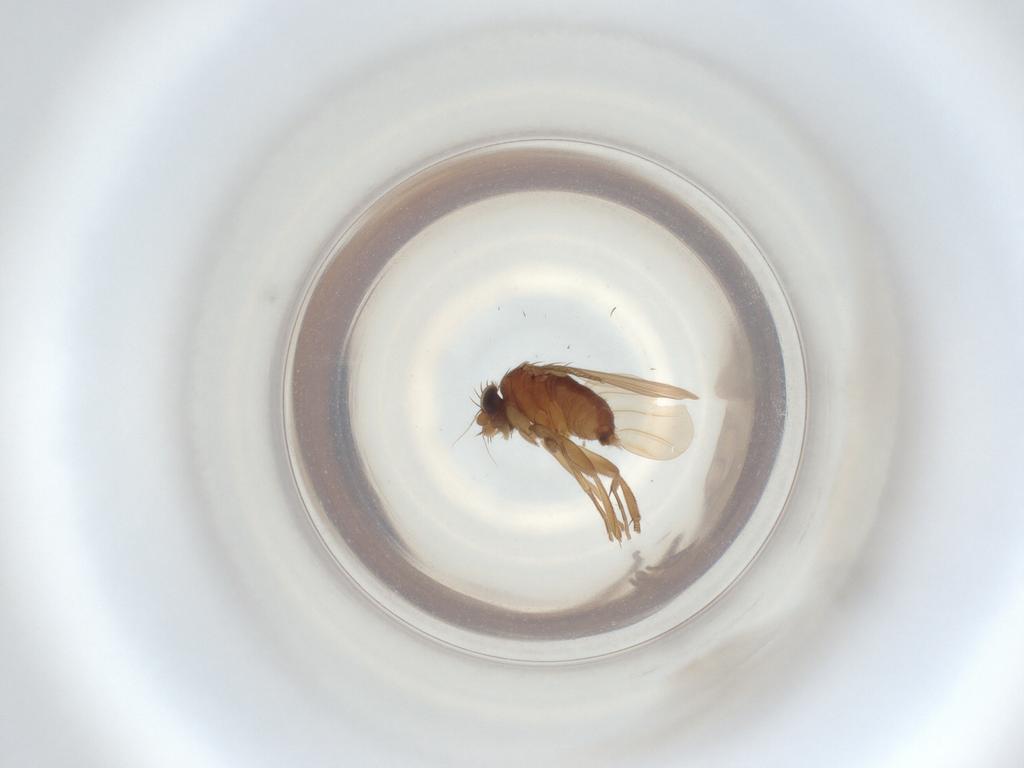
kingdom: Animalia
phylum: Arthropoda
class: Insecta
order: Diptera
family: Phoridae
